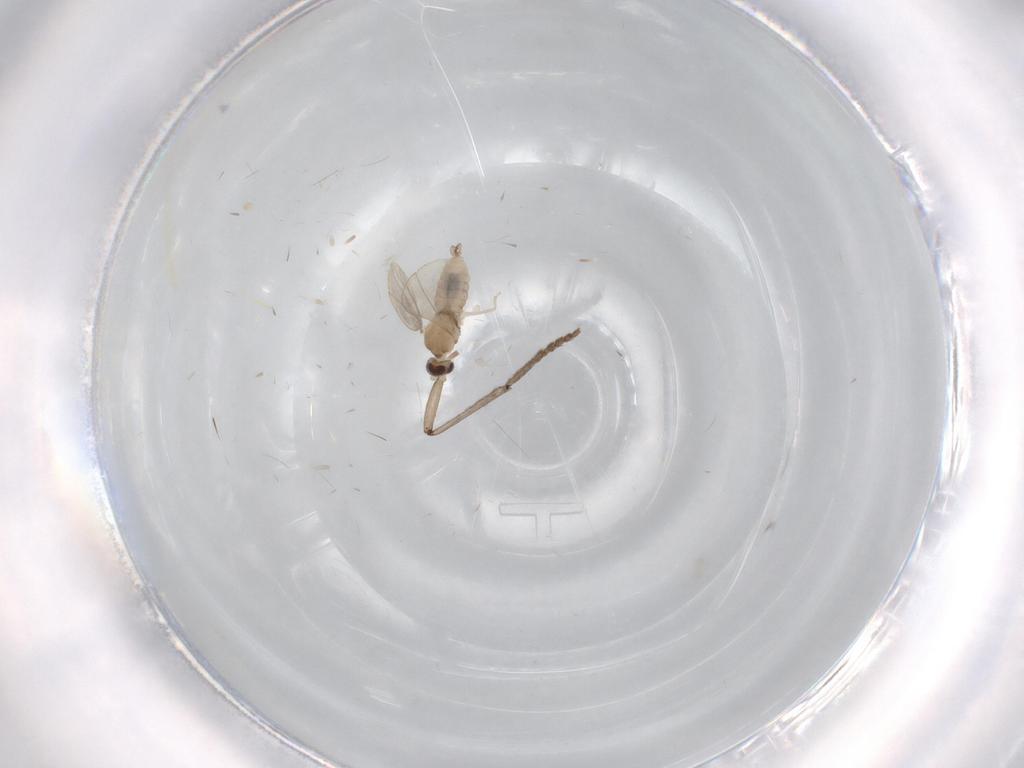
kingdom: Animalia
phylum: Arthropoda
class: Insecta
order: Diptera
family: Cecidomyiidae
